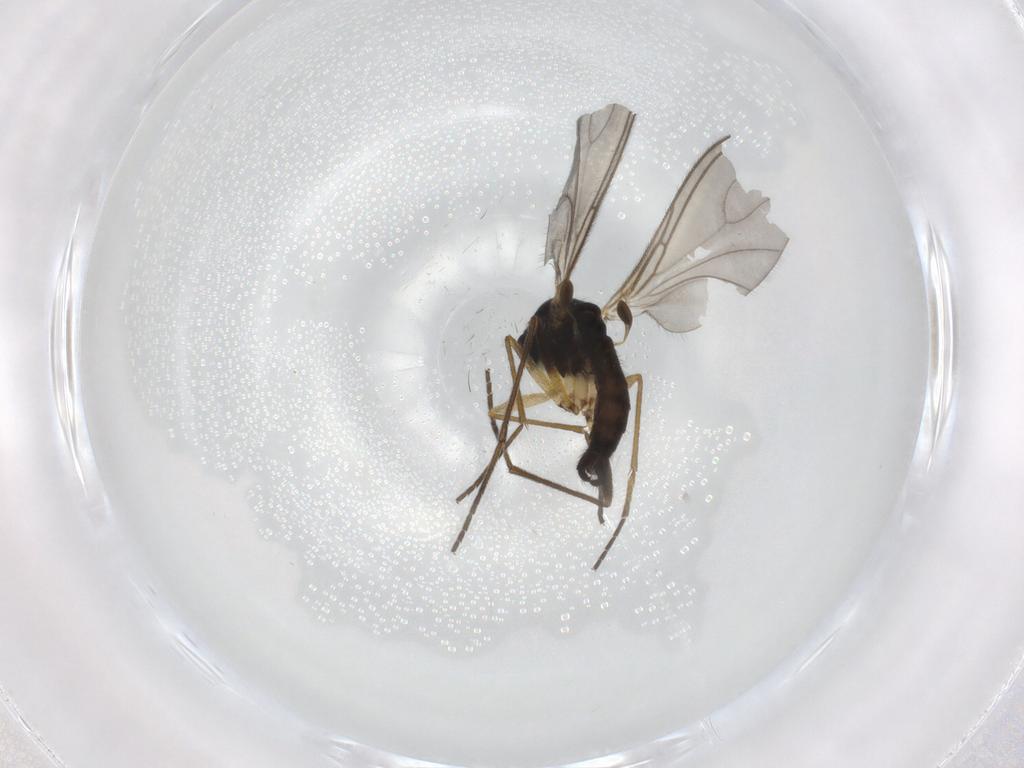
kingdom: Animalia
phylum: Arthropoda
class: Insecta
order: Diptera
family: Sciaridae
